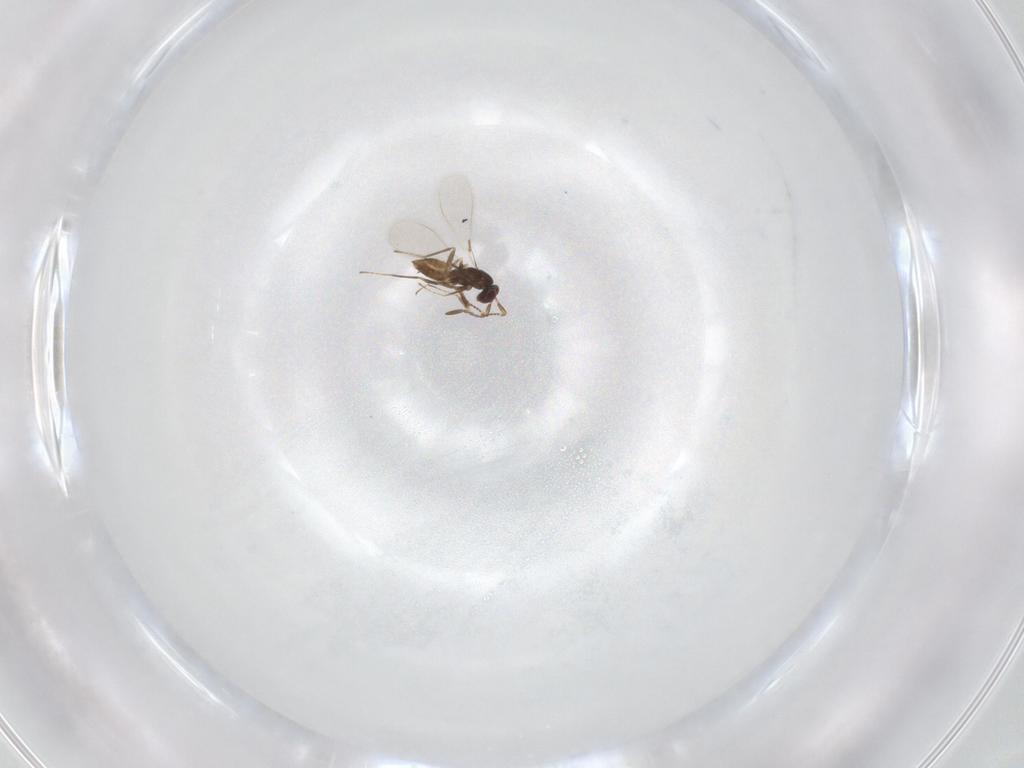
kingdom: Animalia
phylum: Arthropoda
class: Insecta
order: Hymenoptera
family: Mymaridae
